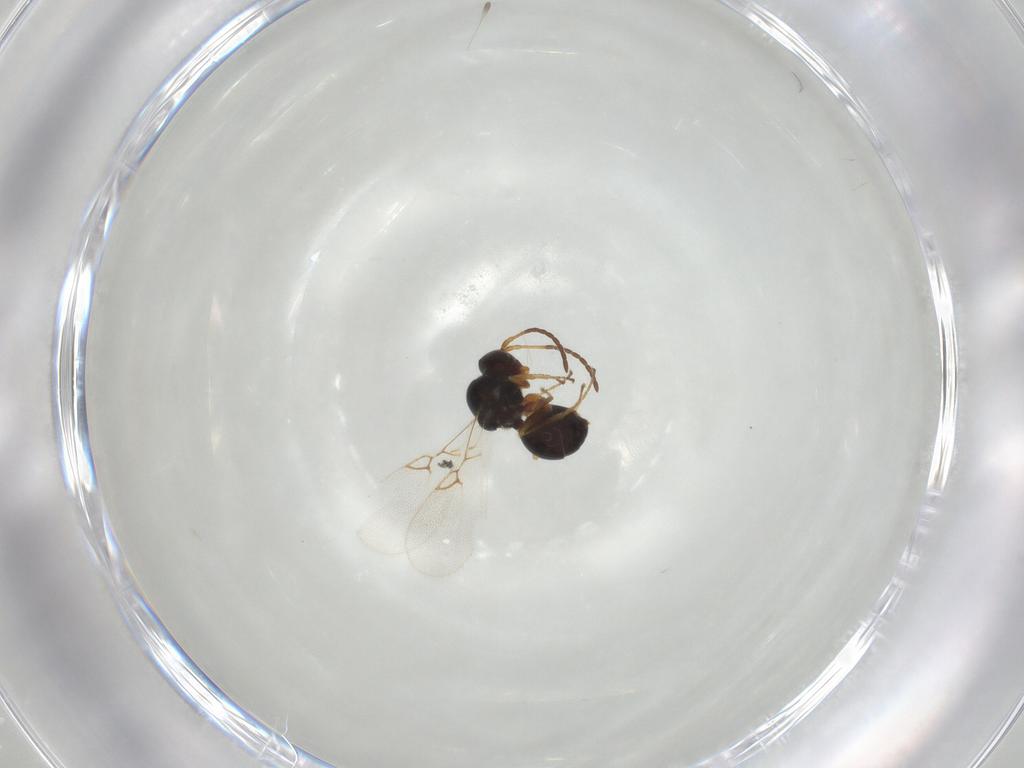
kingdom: Animalia
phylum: Arthropoda
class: Insecta
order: Hymenoptera
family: Figitidae
